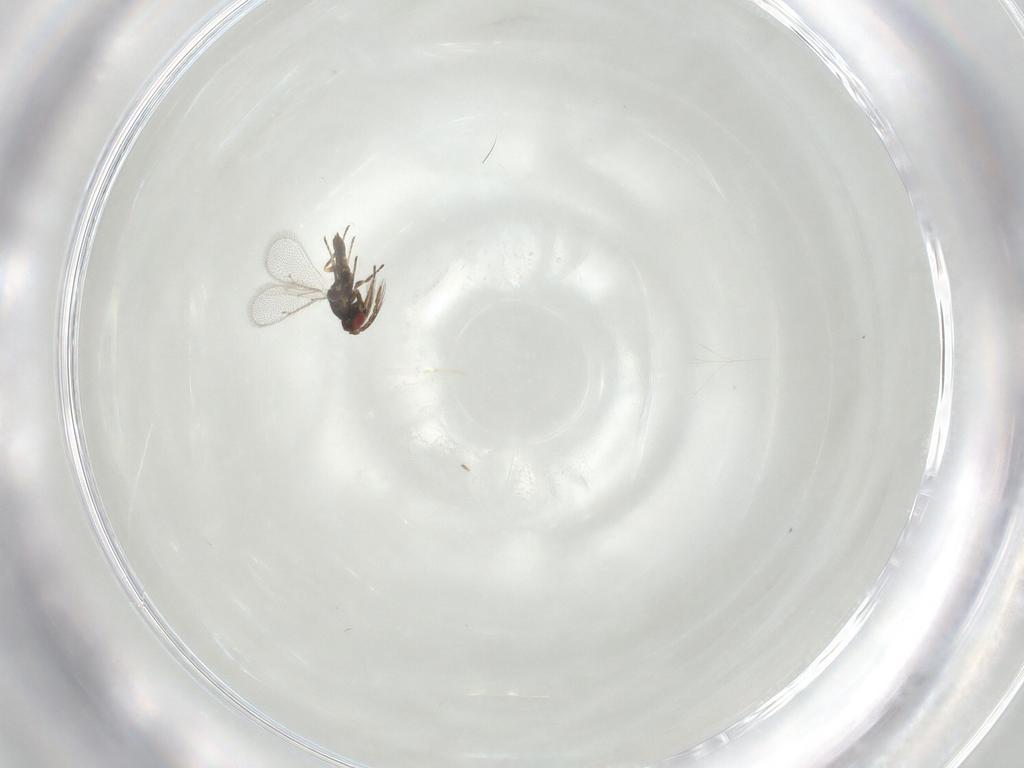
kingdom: Animalia
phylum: Arthropoda
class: Insecta
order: Hymenoptera
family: Eulophidae
